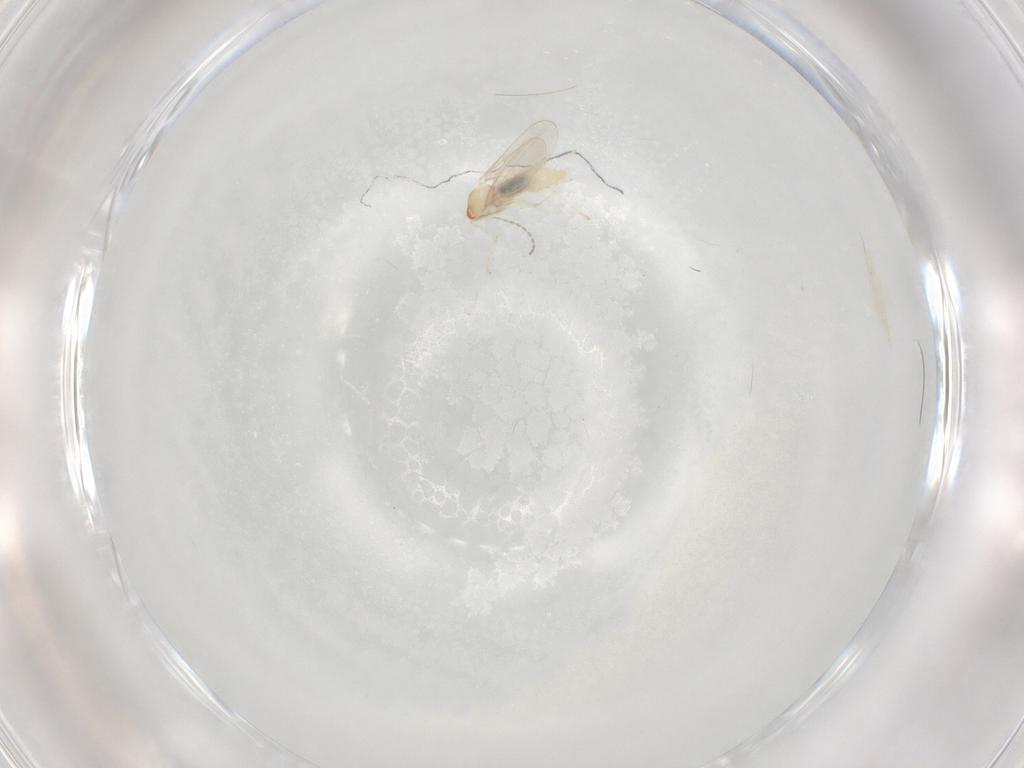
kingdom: Animalia
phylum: Arthropoda
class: Insecta
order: Diptera
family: Cecidomyiidae
